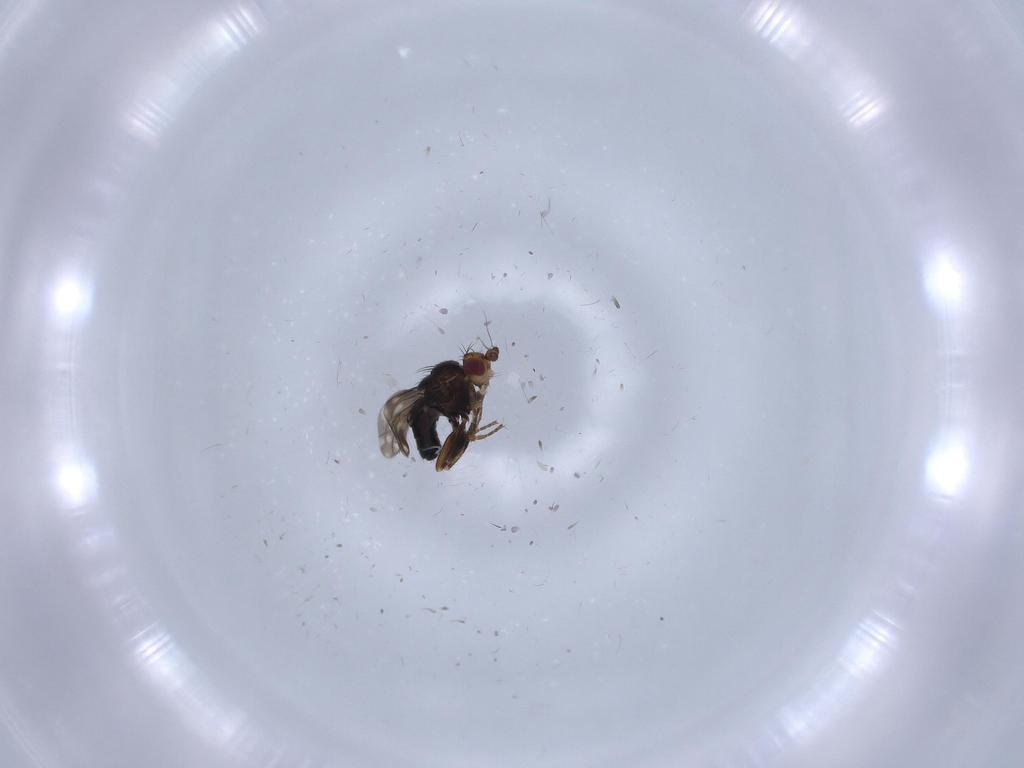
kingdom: Animalia
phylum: Arthropoda
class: Insecta
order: Diptera
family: Sphaeroceridae
